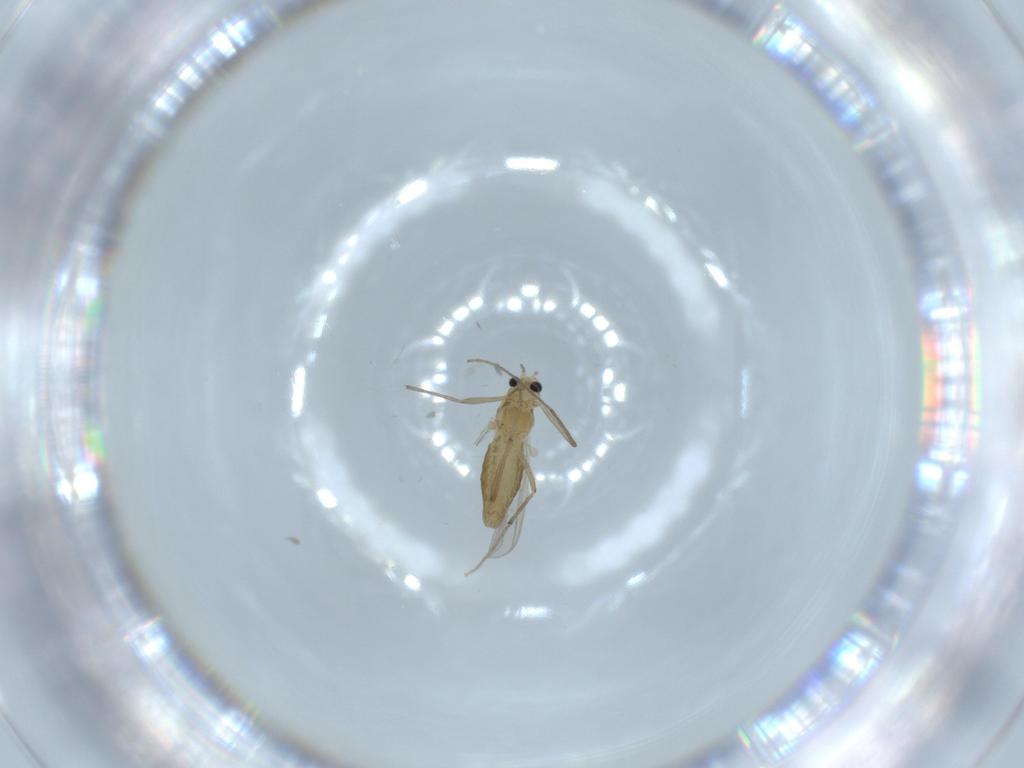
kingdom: Animalia
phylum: Arthropoda
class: Insecta
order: Diptera
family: Chironomidae
